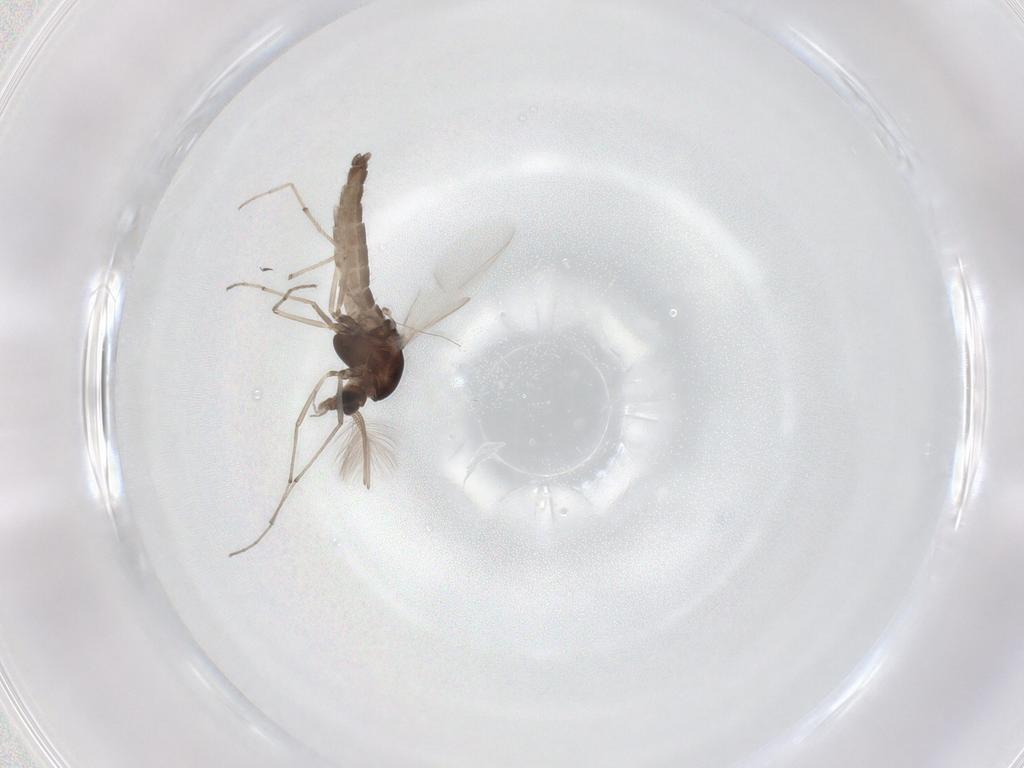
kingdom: Animalia
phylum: Arthropoda
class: Insecta
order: Diptera
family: Chironomidae
